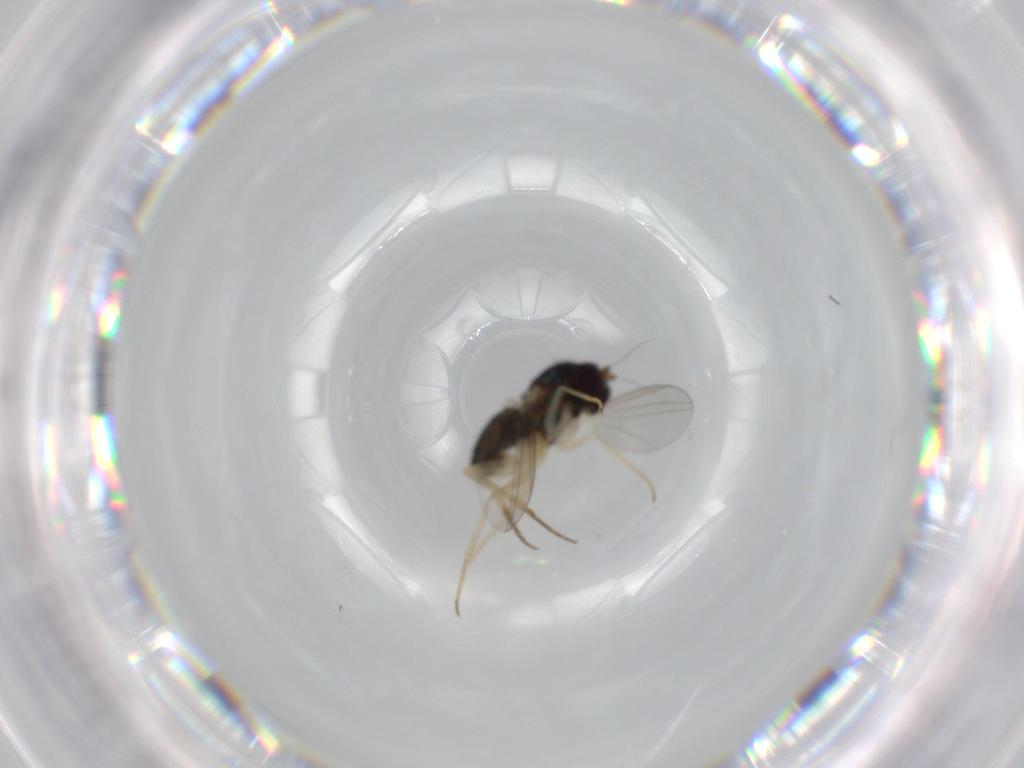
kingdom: Animalia
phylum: Arthropoda
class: Insecta
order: Diptera
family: Dolichopodidae
